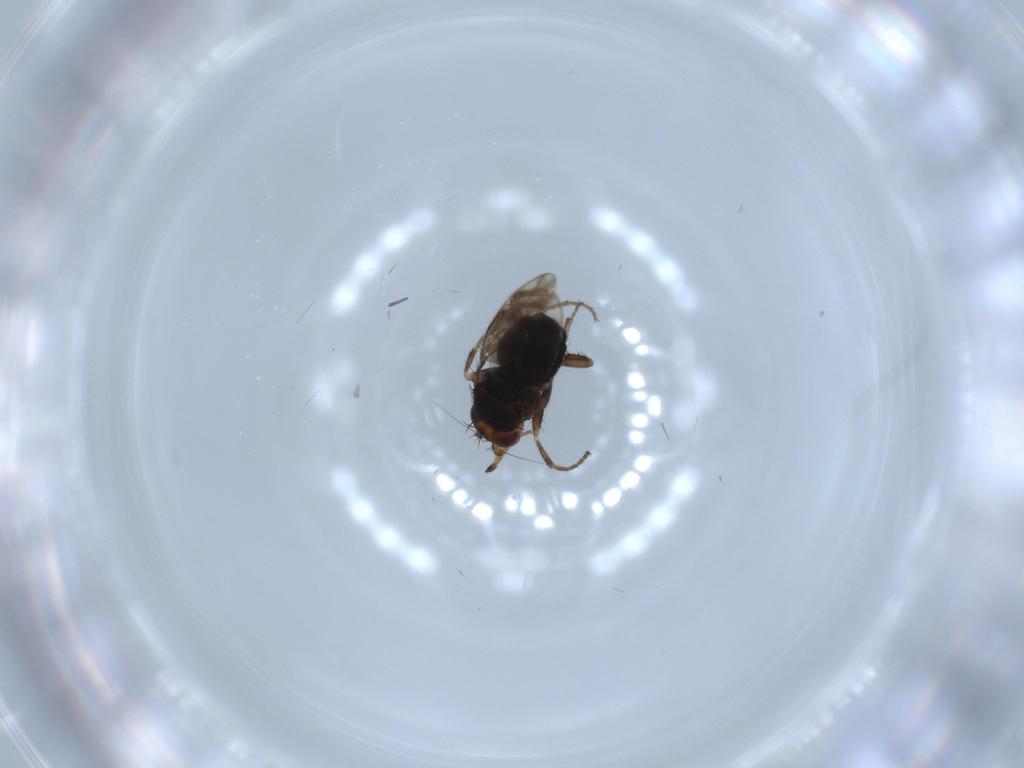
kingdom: Animalia
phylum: Arthropoda
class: Insecta
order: Diptera
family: Sphaeroceridae
